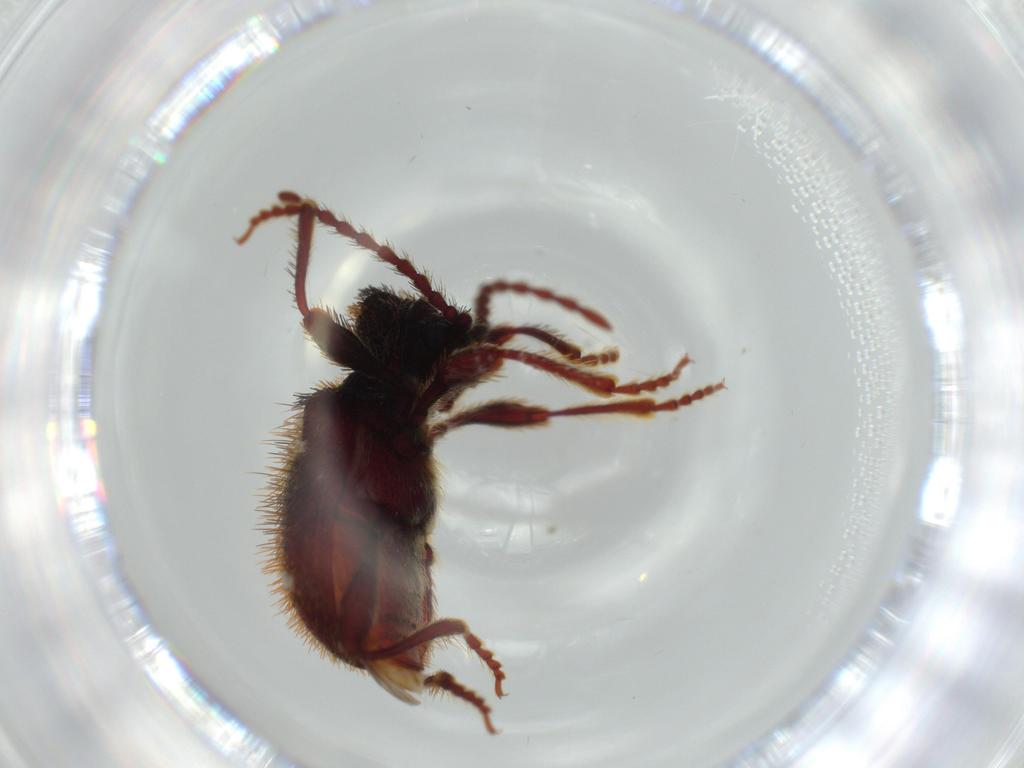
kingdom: Animalia
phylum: Arthropoda
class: Insecta
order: Coleoptera
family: Ptinidae
